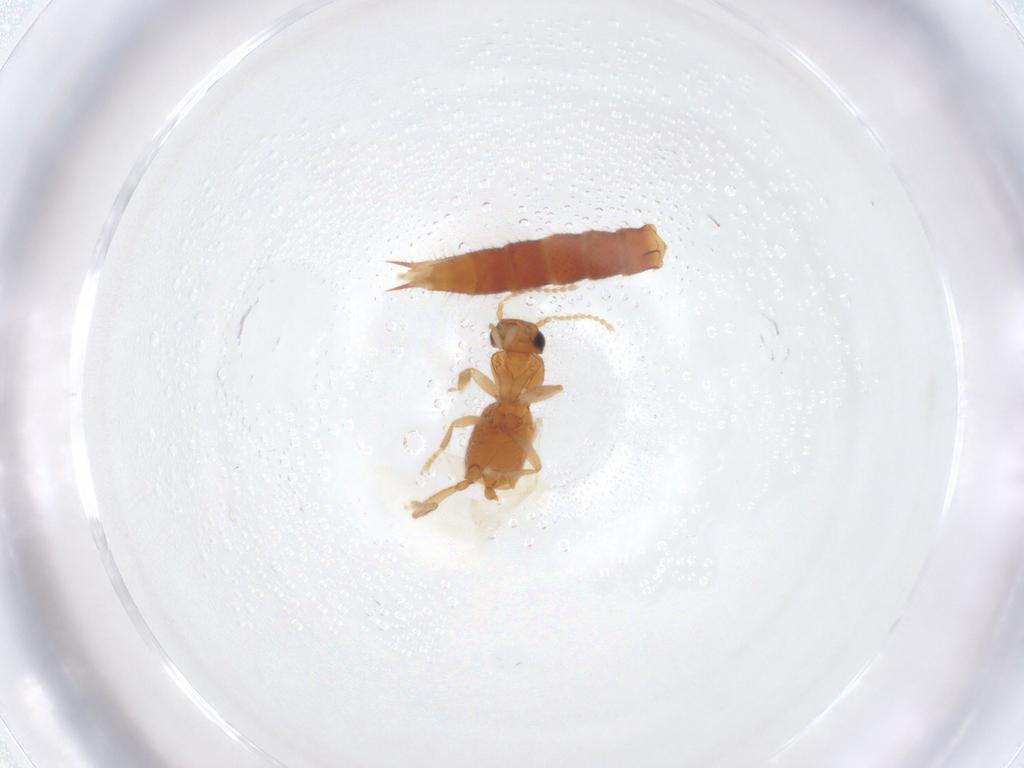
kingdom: Animalia
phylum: Arthropoda
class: Insecta
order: Coleoptera
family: Staphylinidae
